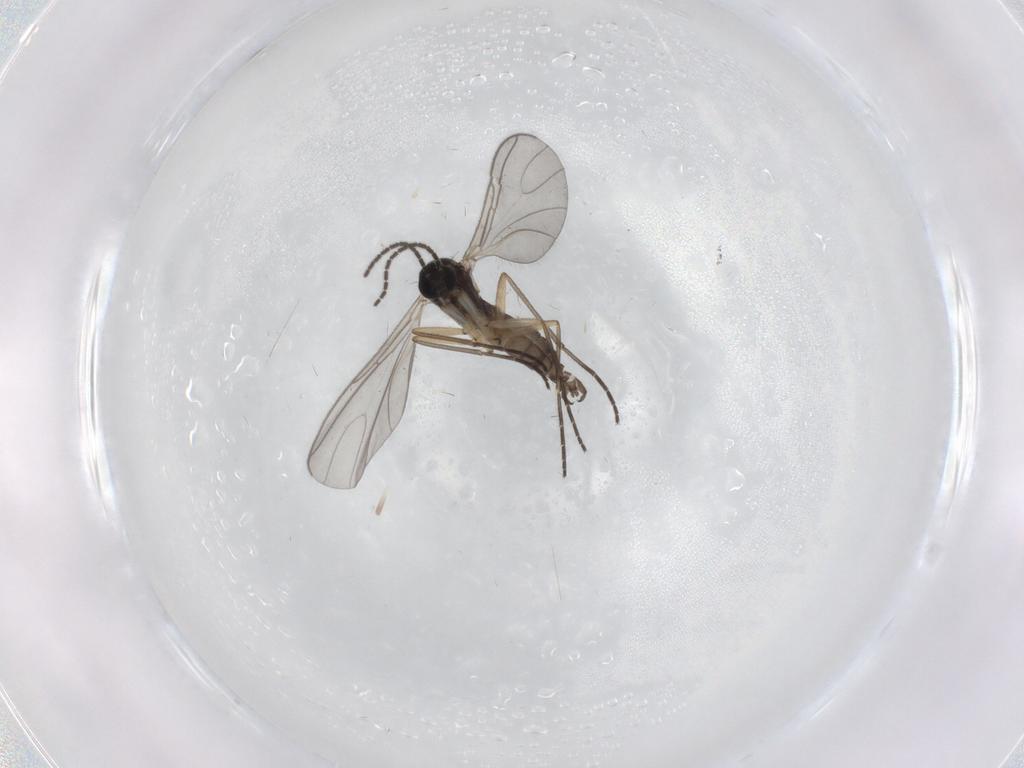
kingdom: Animalia
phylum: Arthropoda
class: Insecta
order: Diptera
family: Sciaridae
